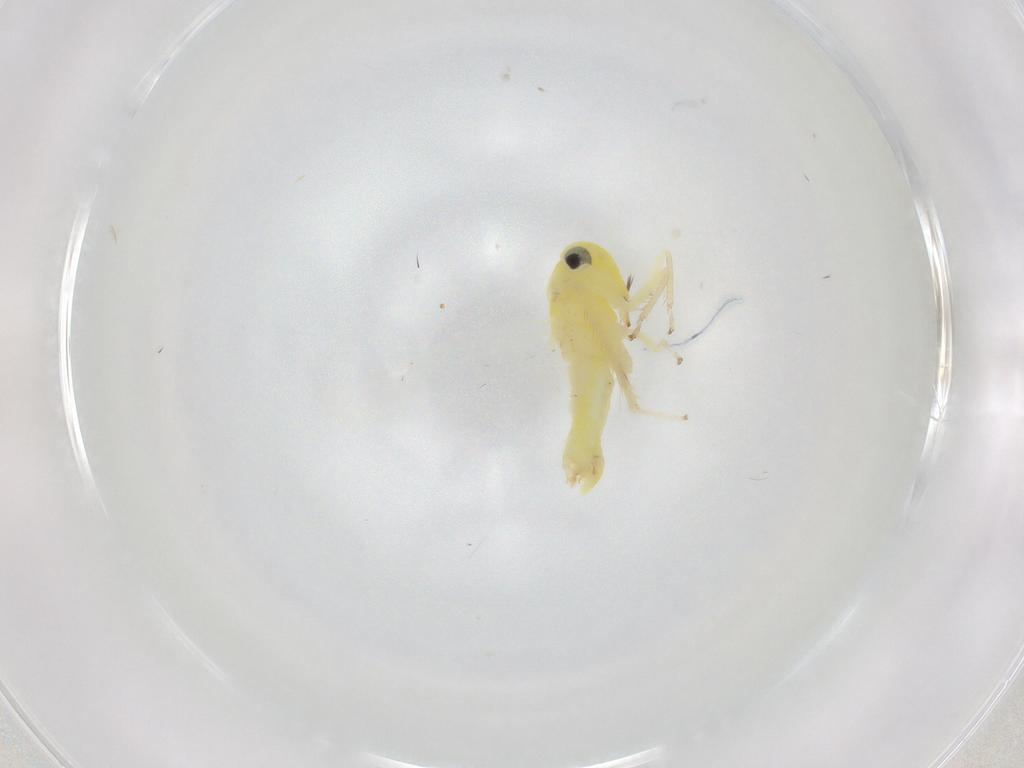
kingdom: Animalia
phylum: Arthropoda
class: Insecta
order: Hemiptera
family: Cicadellidae
